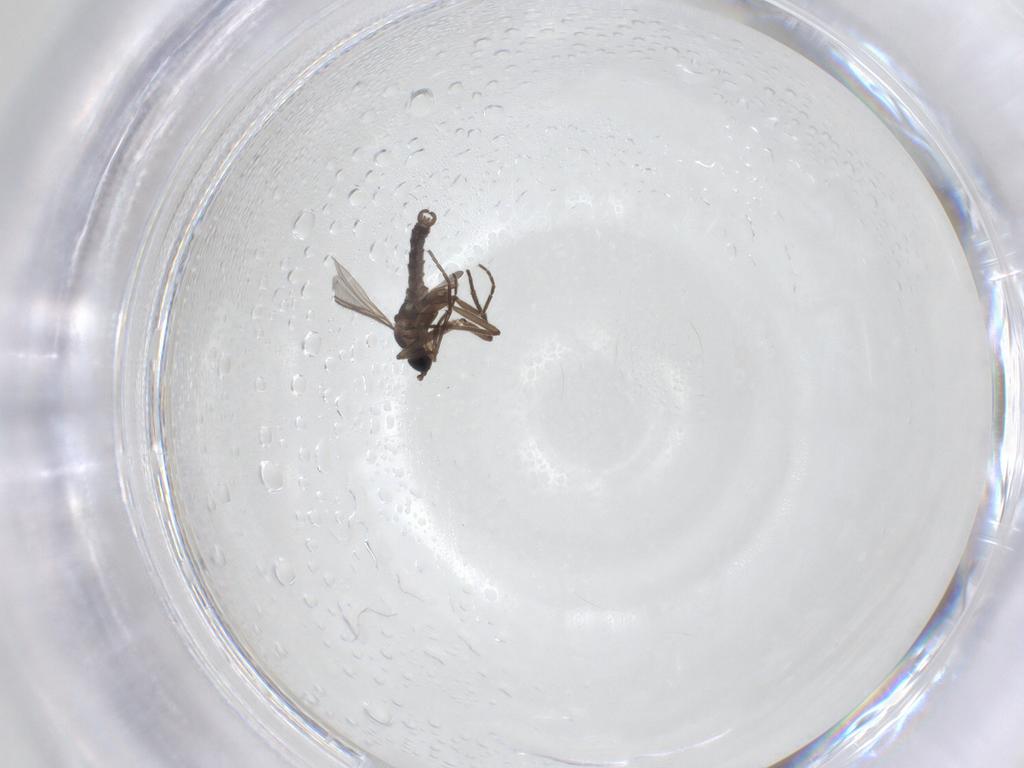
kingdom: Animalia
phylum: Arthropoda
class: Insecta
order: Diptera
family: Sciaridae
